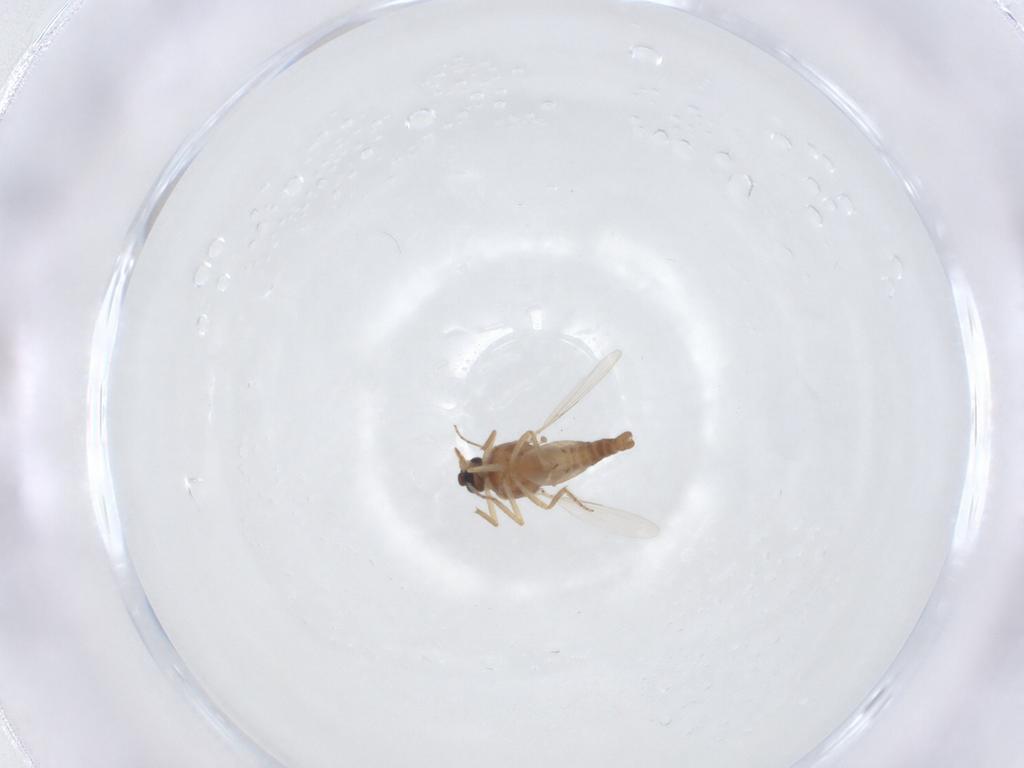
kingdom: Animalia
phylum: Arthropoda
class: Insecta
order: Diptera
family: Ceratopogonidae
